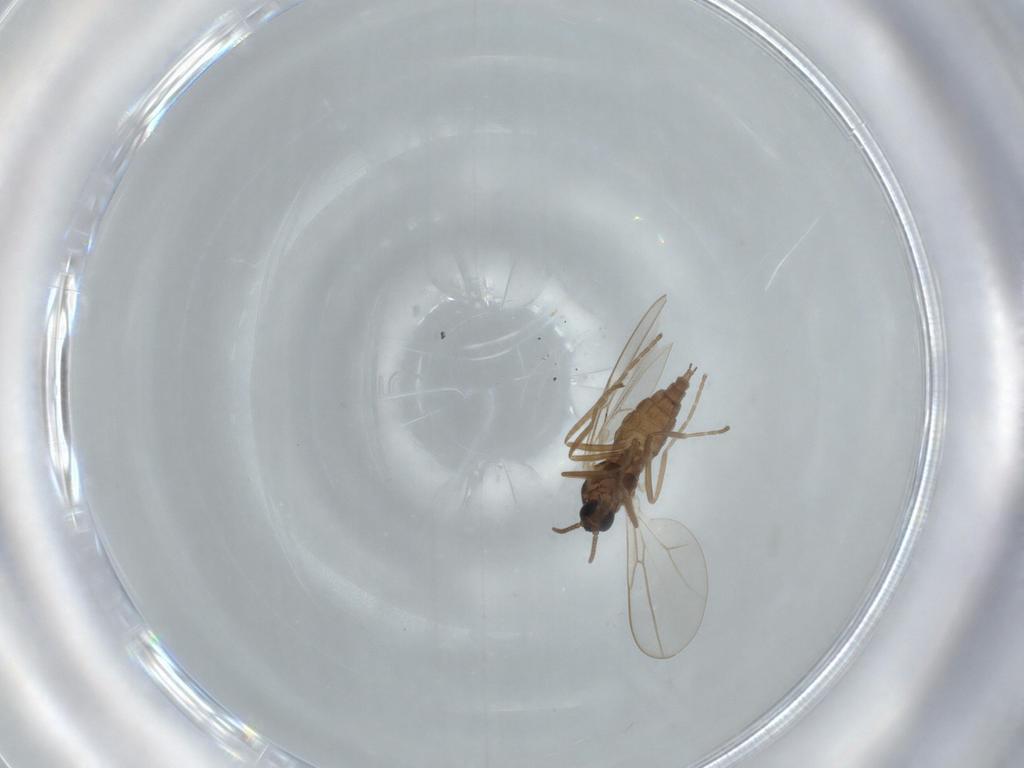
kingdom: Animalia
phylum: Arthropoda
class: Insecta
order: Diptera
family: Cecidomyiidae
